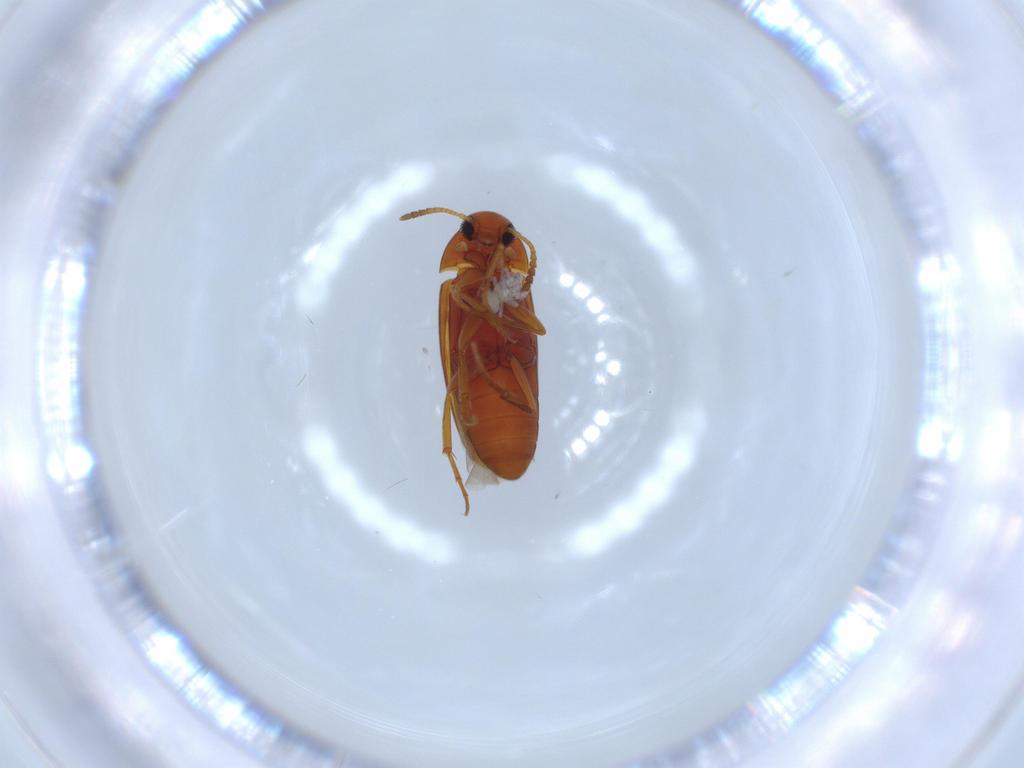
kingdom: Animalia
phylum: Arthropoda
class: Insecta
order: Coleoptera
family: Scraptiidae
